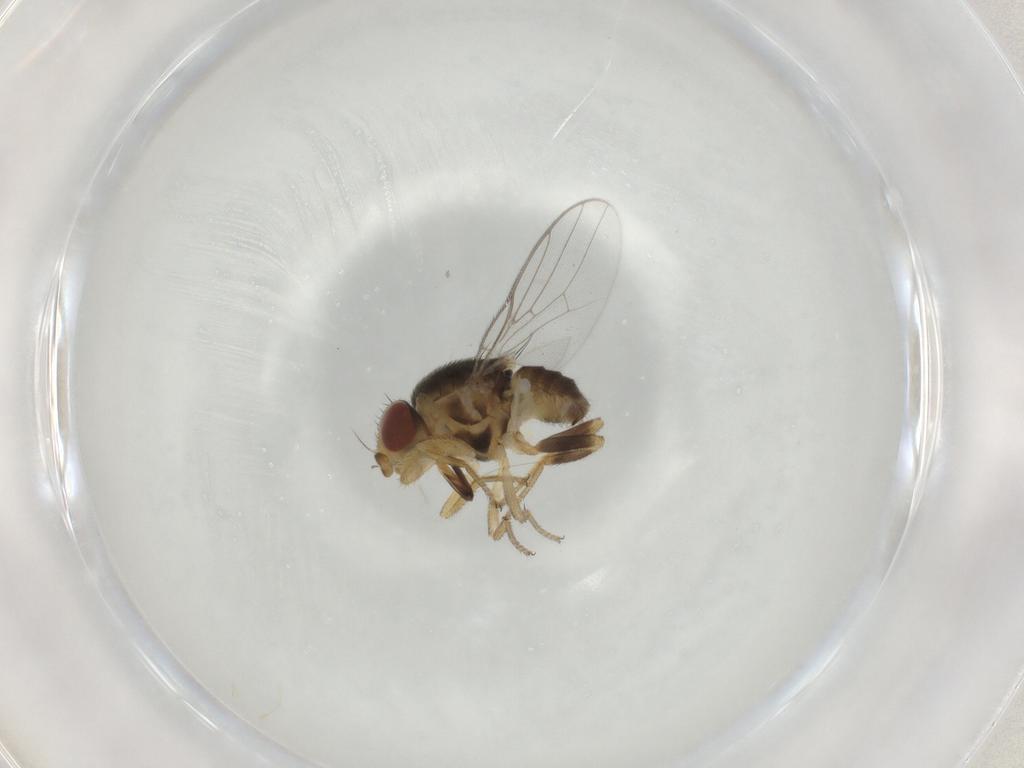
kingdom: Animalia
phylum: Arthropoda
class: Insecta
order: Diptera
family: Chloropidae
